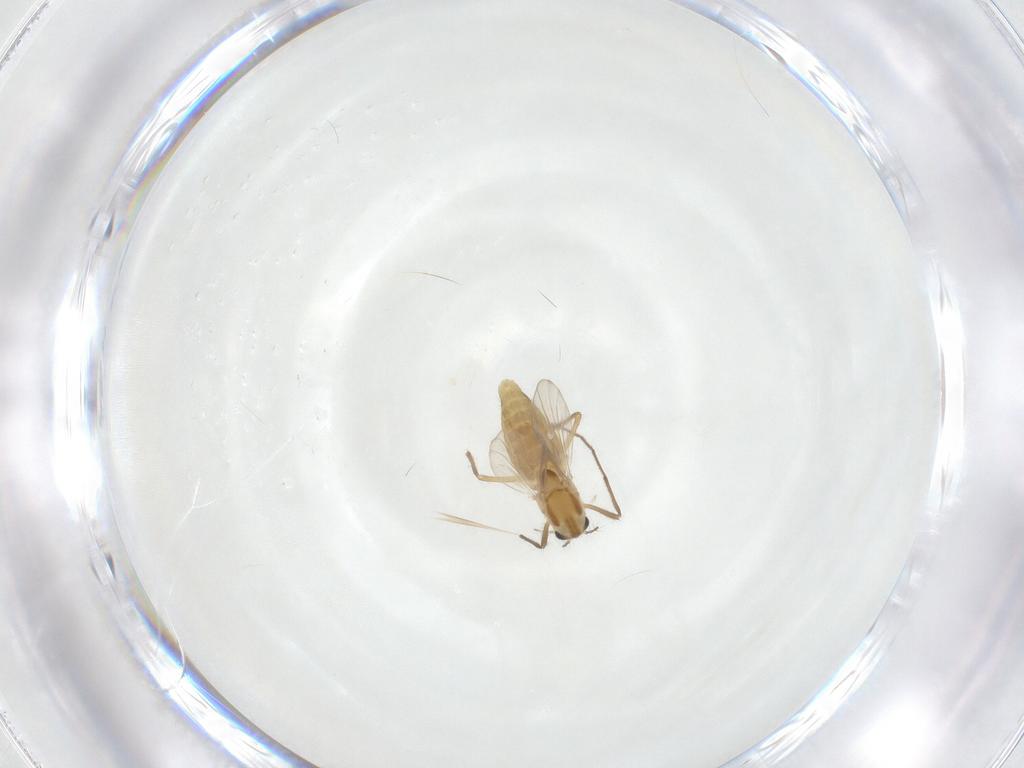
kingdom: Animalia
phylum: Arthropoda
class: Insecta
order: Diptera
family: Chironomidae
